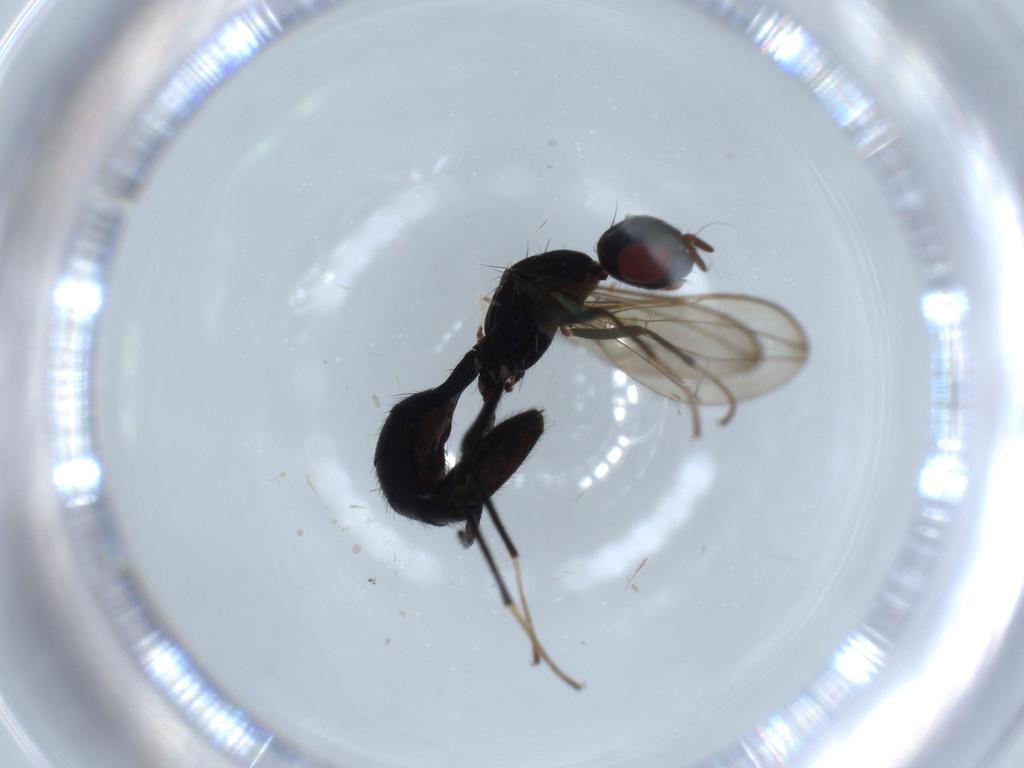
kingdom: Animalia
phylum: Arthropoda
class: Insecta
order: Diptera
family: Richardiidae
